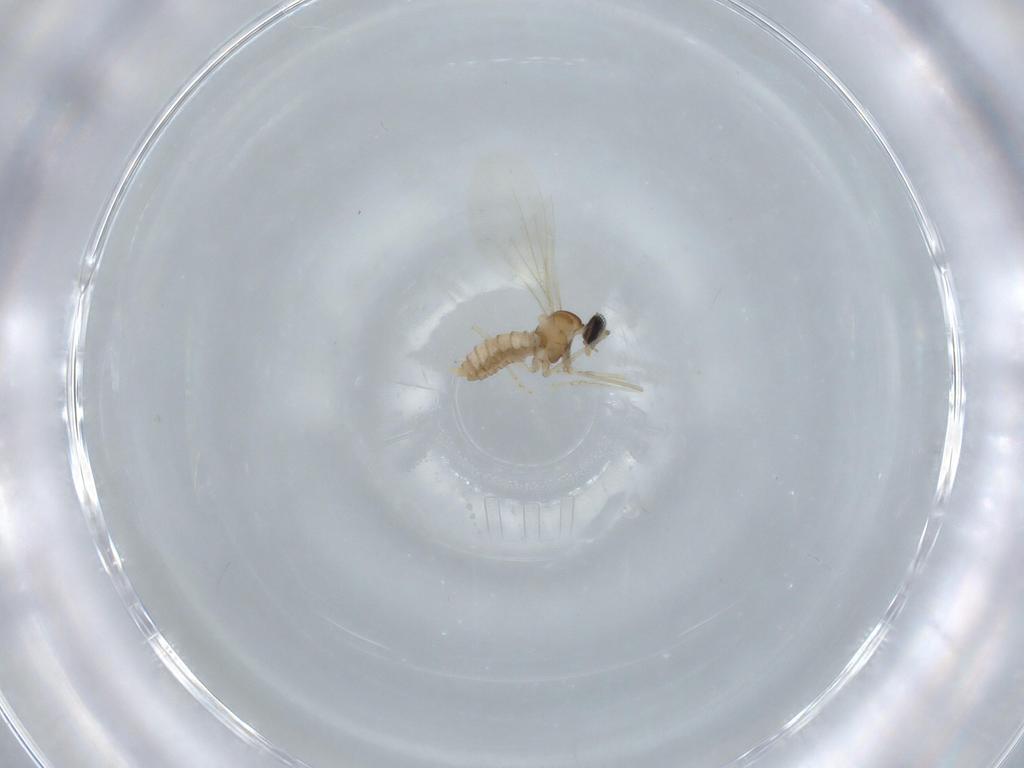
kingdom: Animalia
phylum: Arthropoda
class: Insecta
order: Diptera
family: Cecidomyiidae
